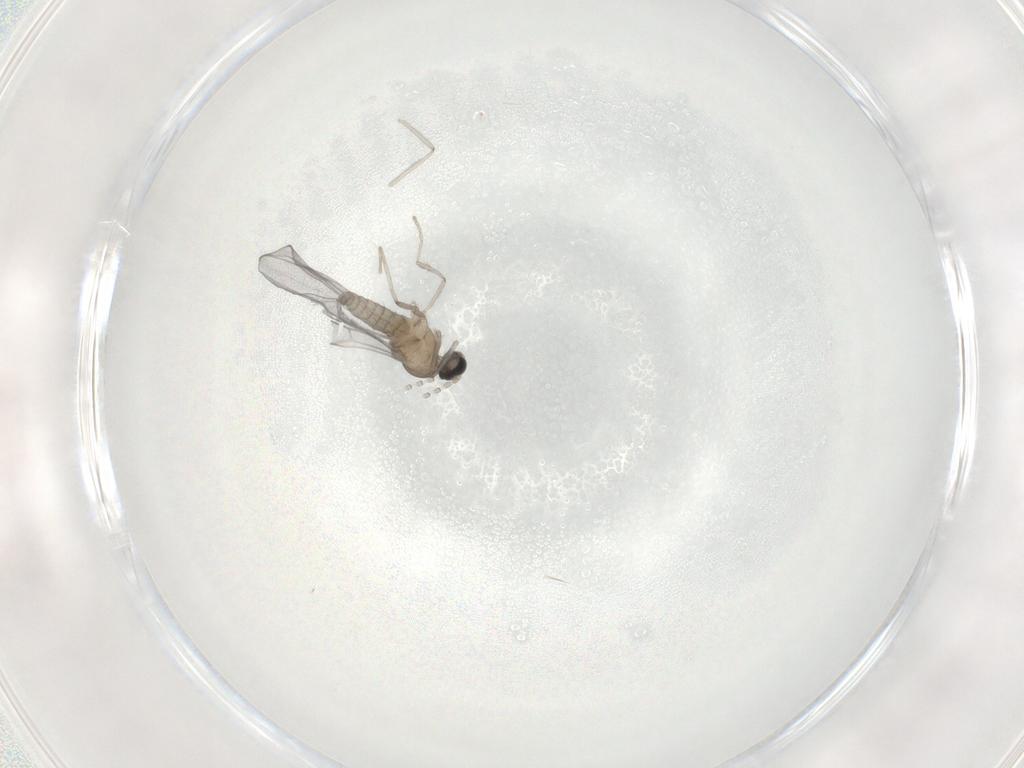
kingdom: Animalia
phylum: Arthropoda
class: Insecta
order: Diptera
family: Cecidomyiidae
